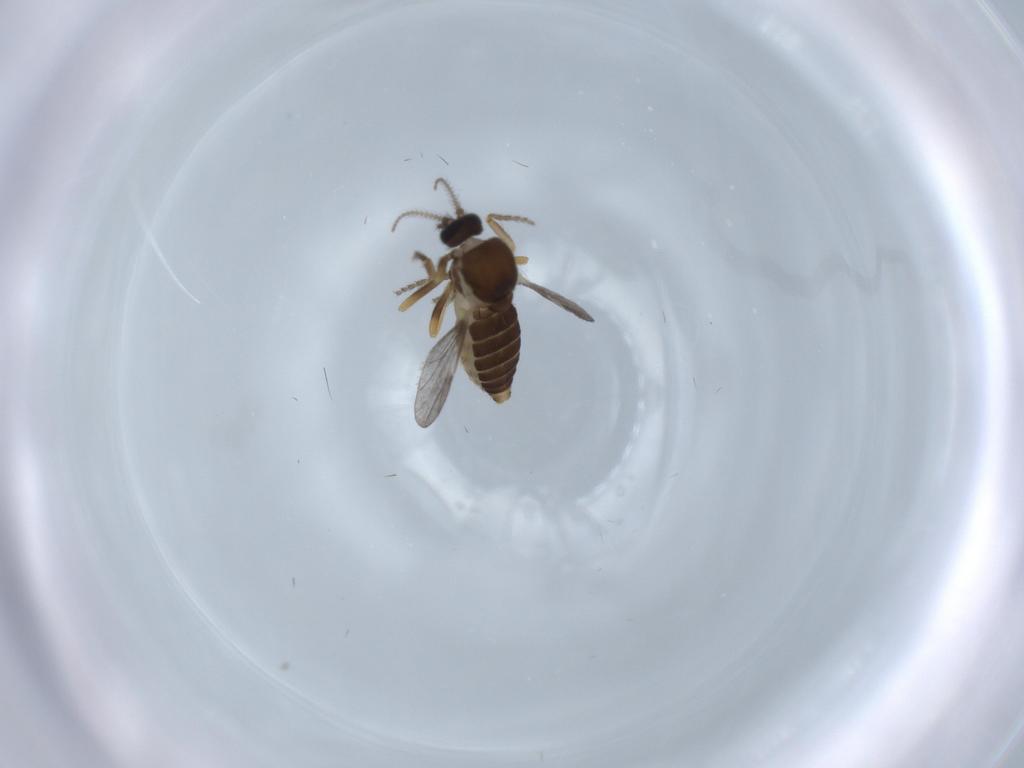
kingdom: Animalia
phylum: Arthropoda
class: Insecta
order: Diptera
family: Ceratopogonidae
